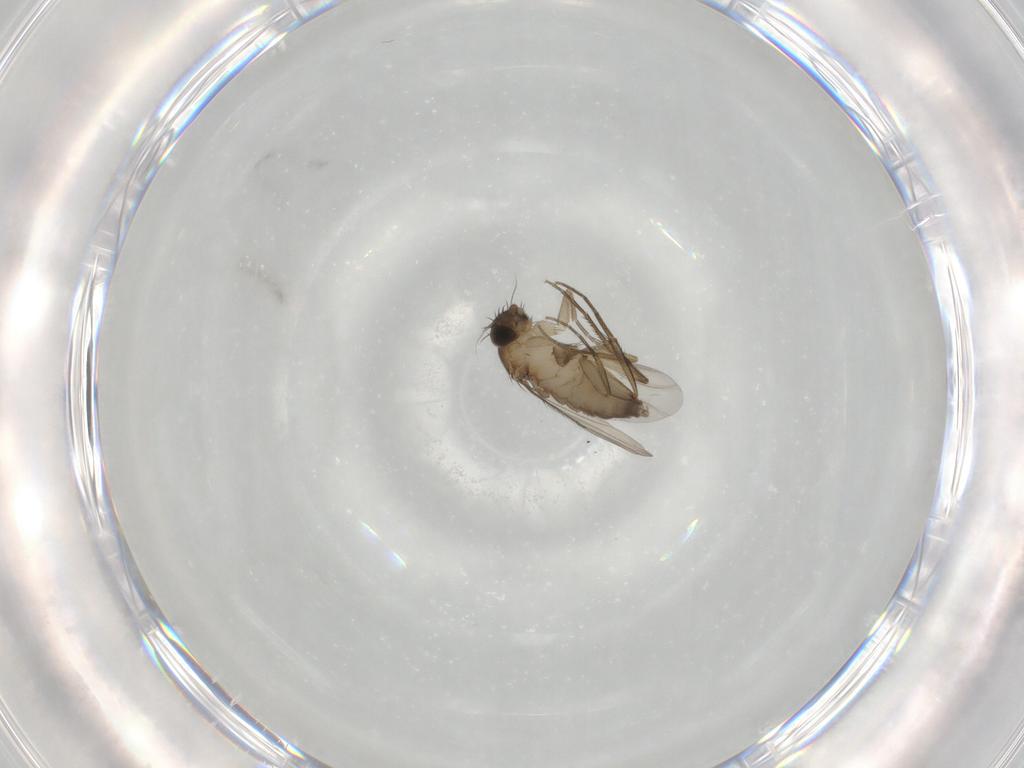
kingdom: Animalia
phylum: Arthropoda
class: Insecta
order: Diptera
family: Phoridae
